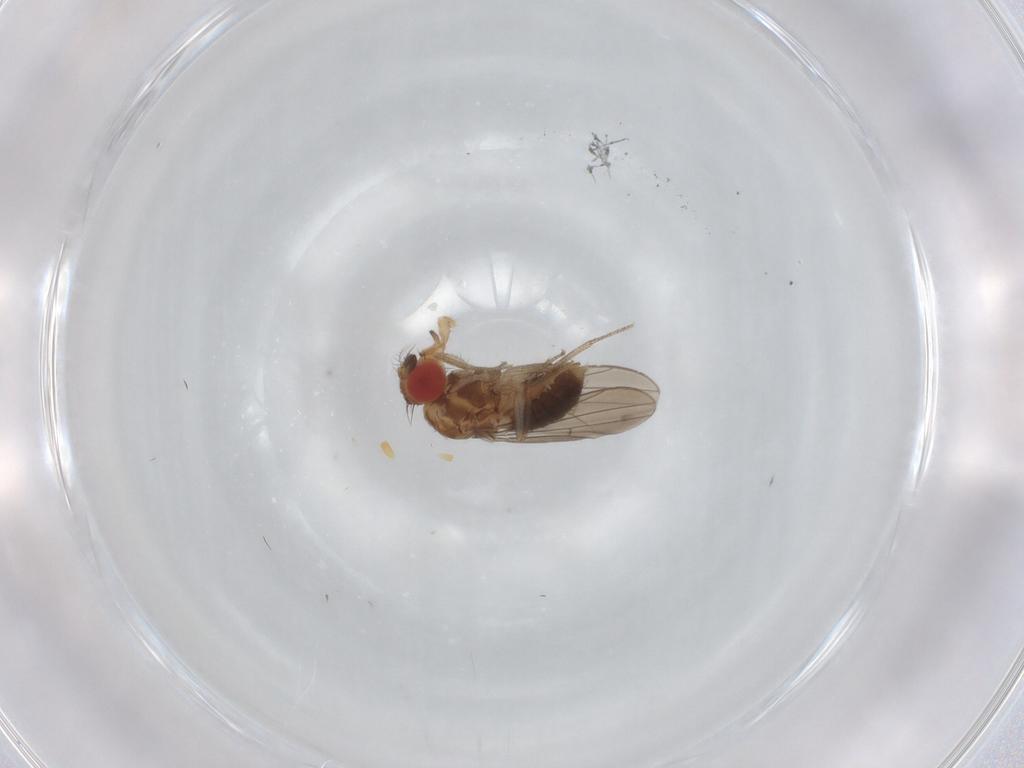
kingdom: Animalia
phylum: Arthropoda
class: Insecta
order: Diptera
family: Drosophilidae
